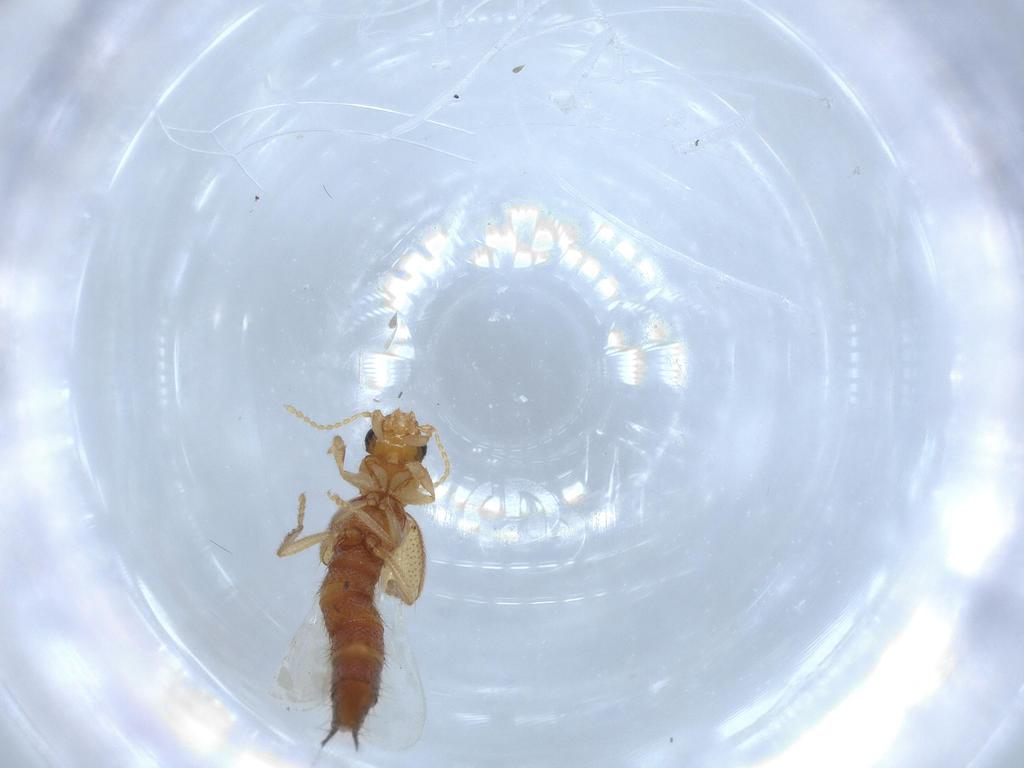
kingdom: Animalia
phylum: Arthropoda
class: Insecta
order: Coleoptera
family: Staphylinidae
